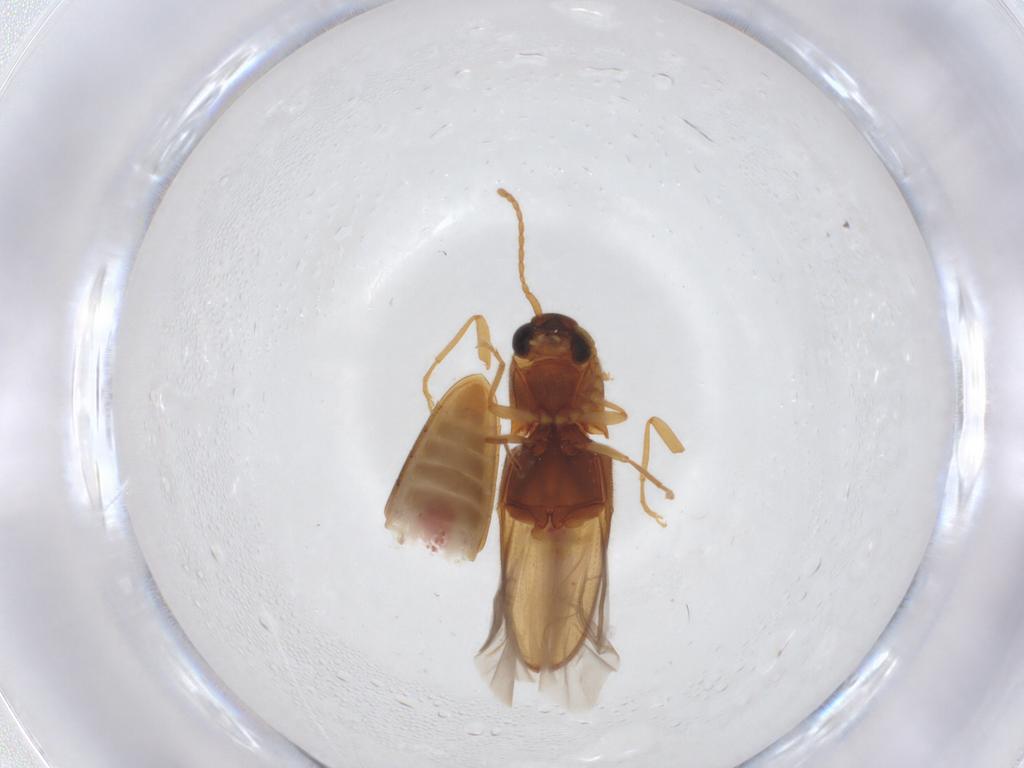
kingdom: Animalia
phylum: Arthropoda
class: Insecta
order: Coleoptera
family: Elateridae
